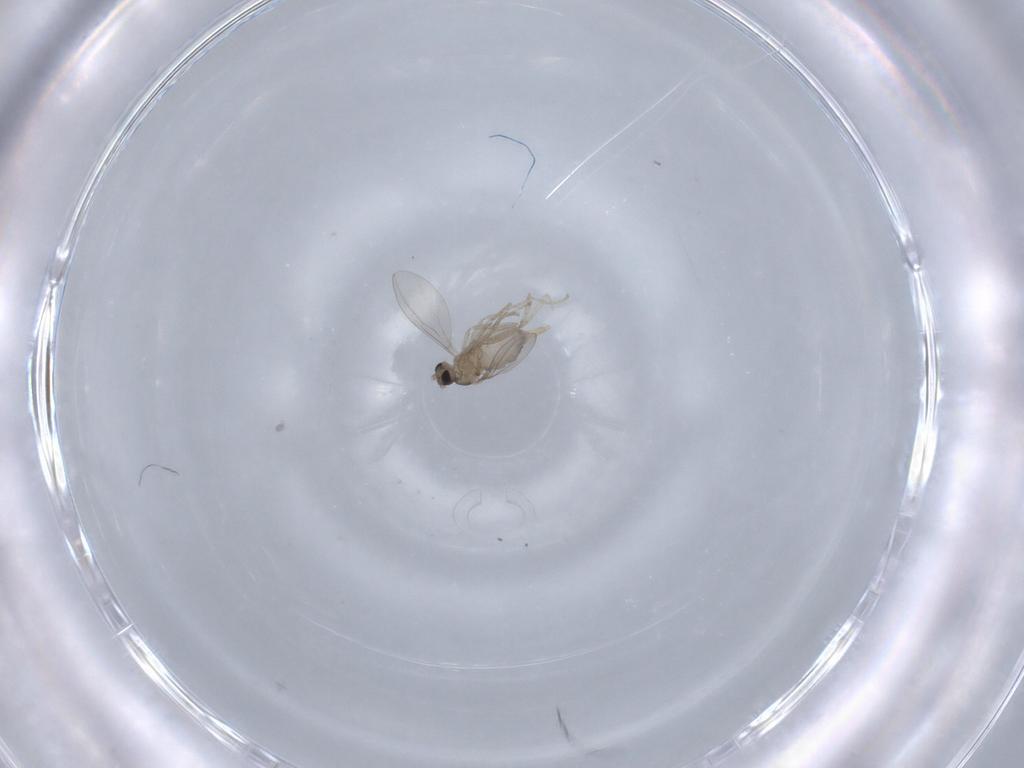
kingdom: Animalia
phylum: Arthropoda
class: Insecta
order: Diptera
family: Cecidomyiidae
